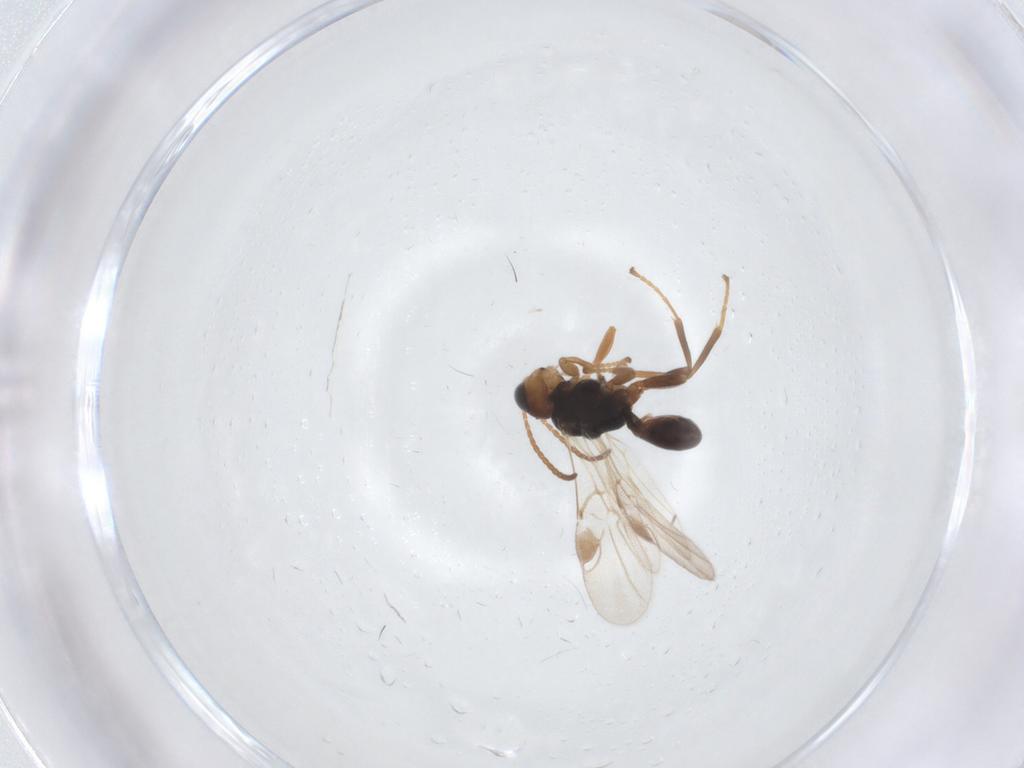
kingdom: Animalia
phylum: Arthropoda
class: Insecta
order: Hymenoptera
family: Braconidae
